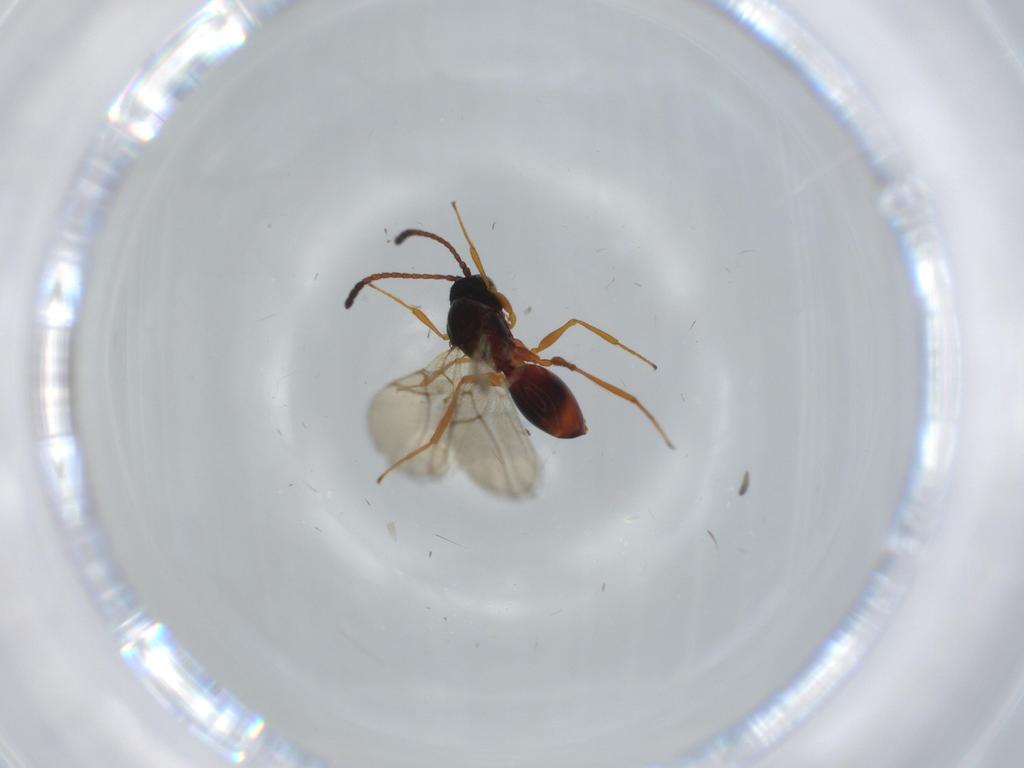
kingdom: Animalia
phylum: Arthropoda
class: Insecta
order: Hymenoptera
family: Figitidae
